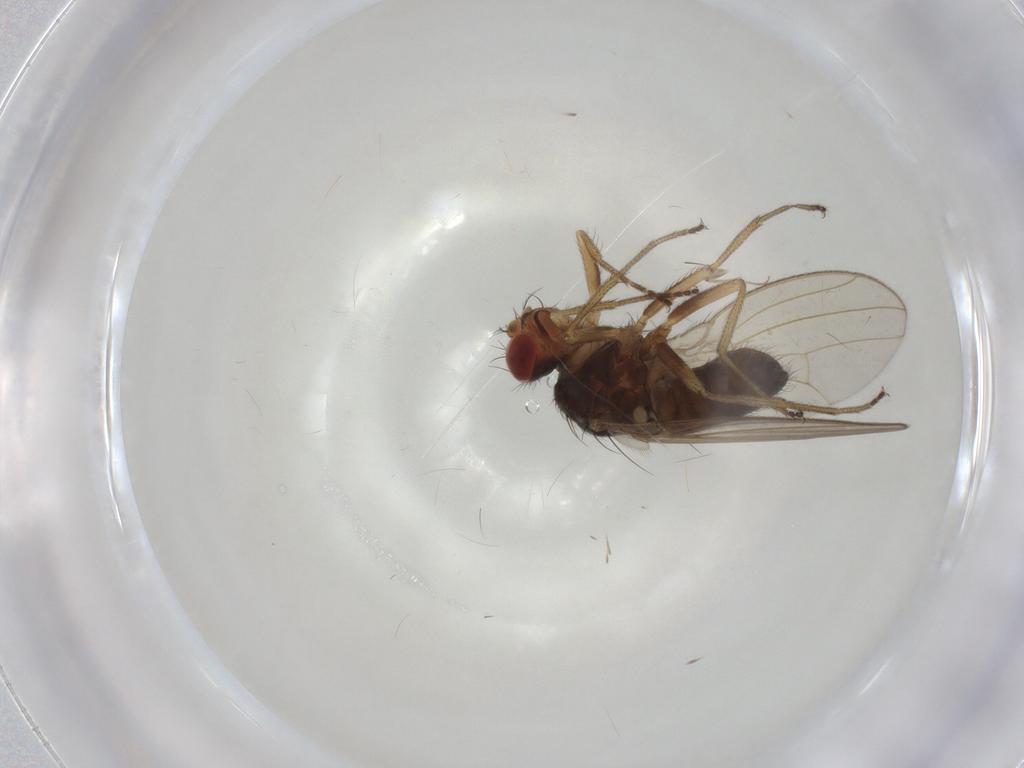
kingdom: Animalia
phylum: Arthropoda
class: Insecta
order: Diptera
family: Drosophilidae
